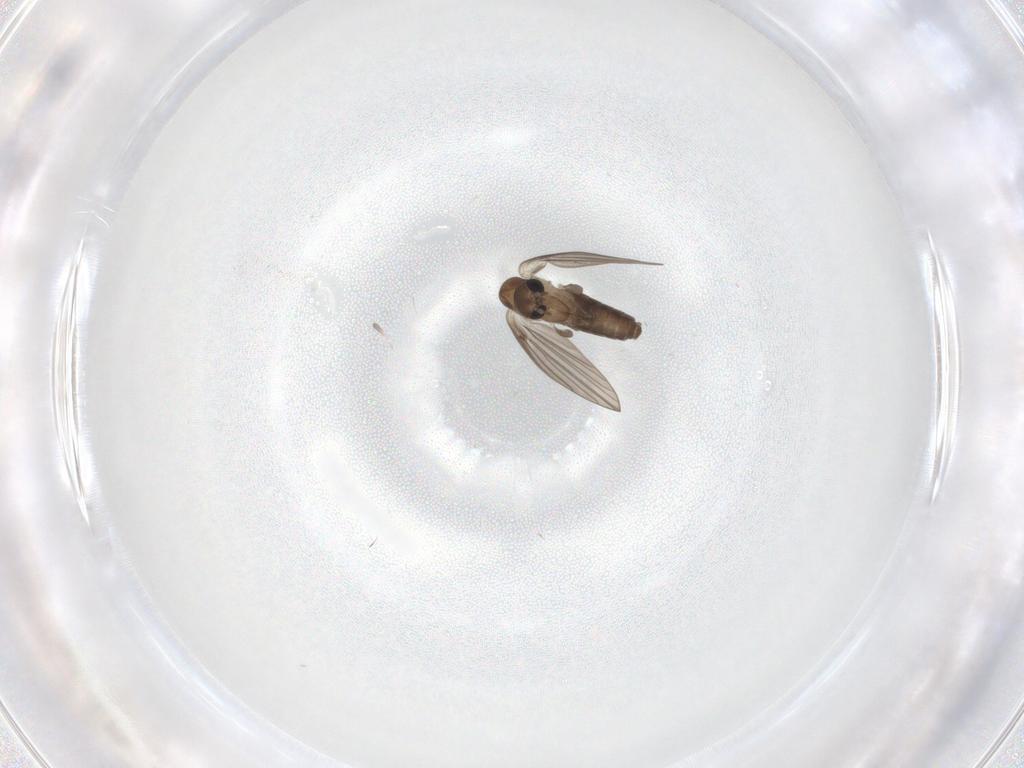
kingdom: Animalia
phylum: Arthropoda
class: Insecta
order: Diptera
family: Psychodidae
